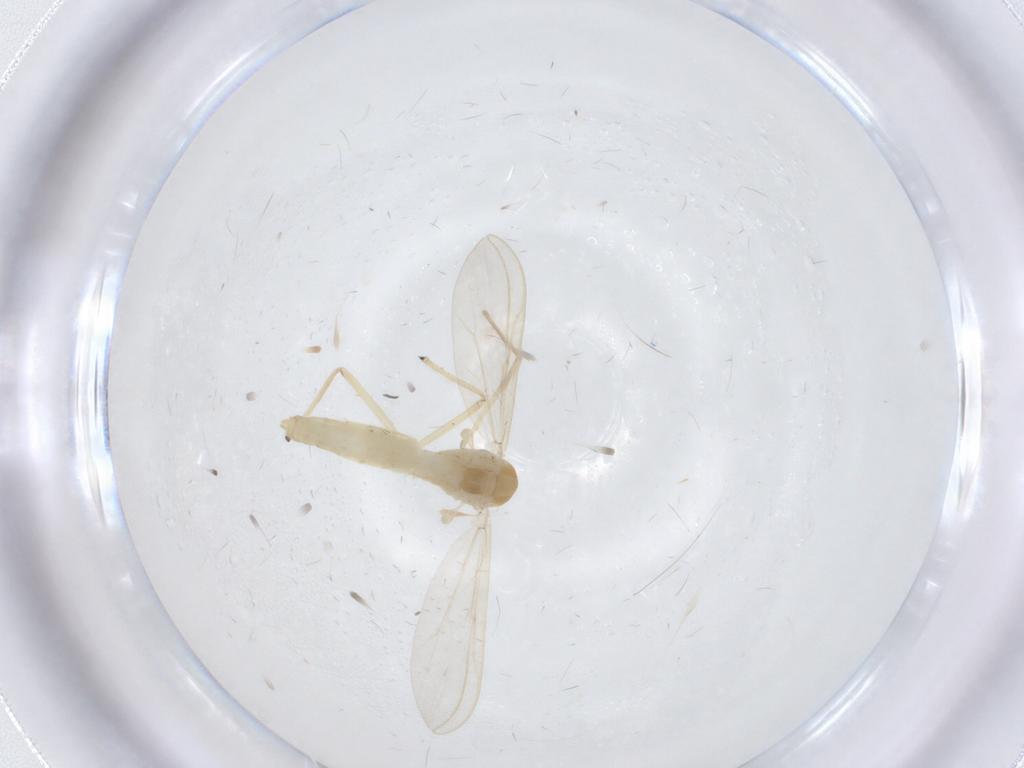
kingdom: Animalia
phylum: Arthropoda
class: Insecta
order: Diptera
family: Chironomidae
